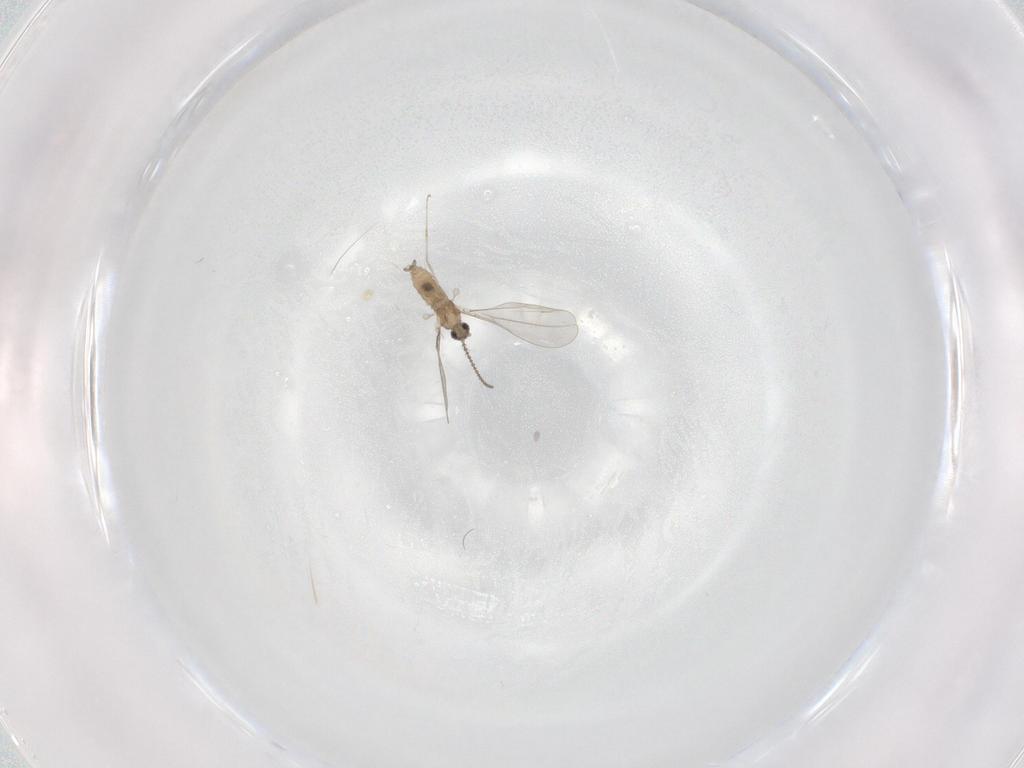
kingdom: Animalia
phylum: Arthropoda
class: Insecta
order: Diptera
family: Cecidomyiidae
